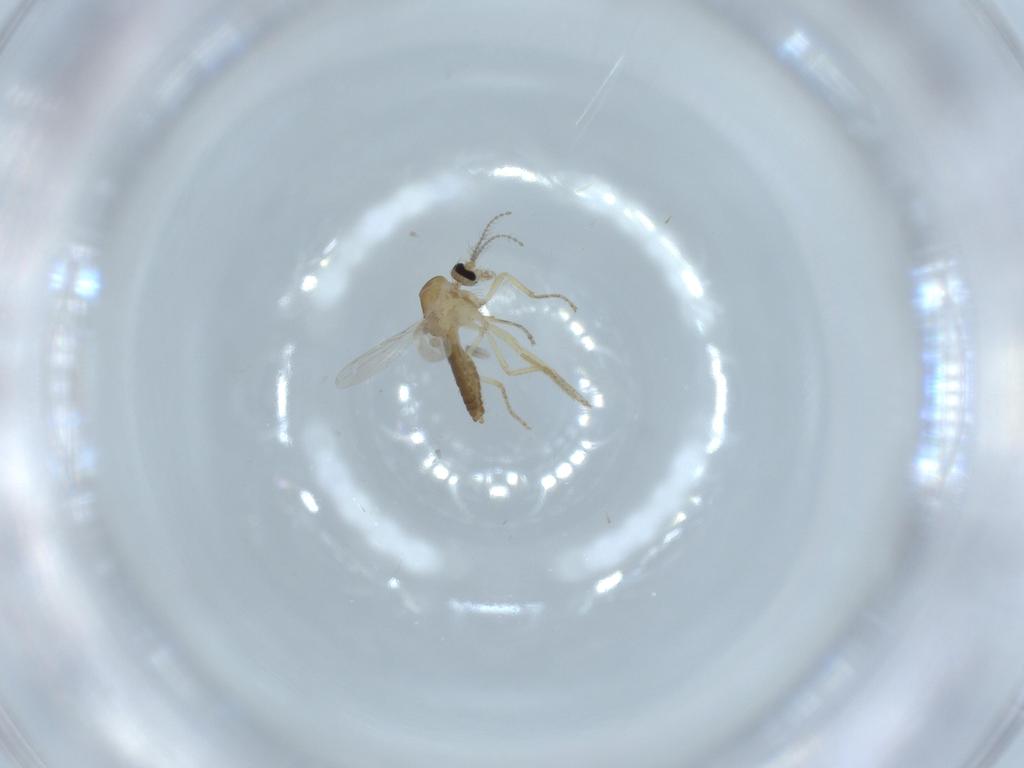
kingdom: Animalia
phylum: Arthropoda
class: Insecta
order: Diptera
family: Ceratopogonidae
